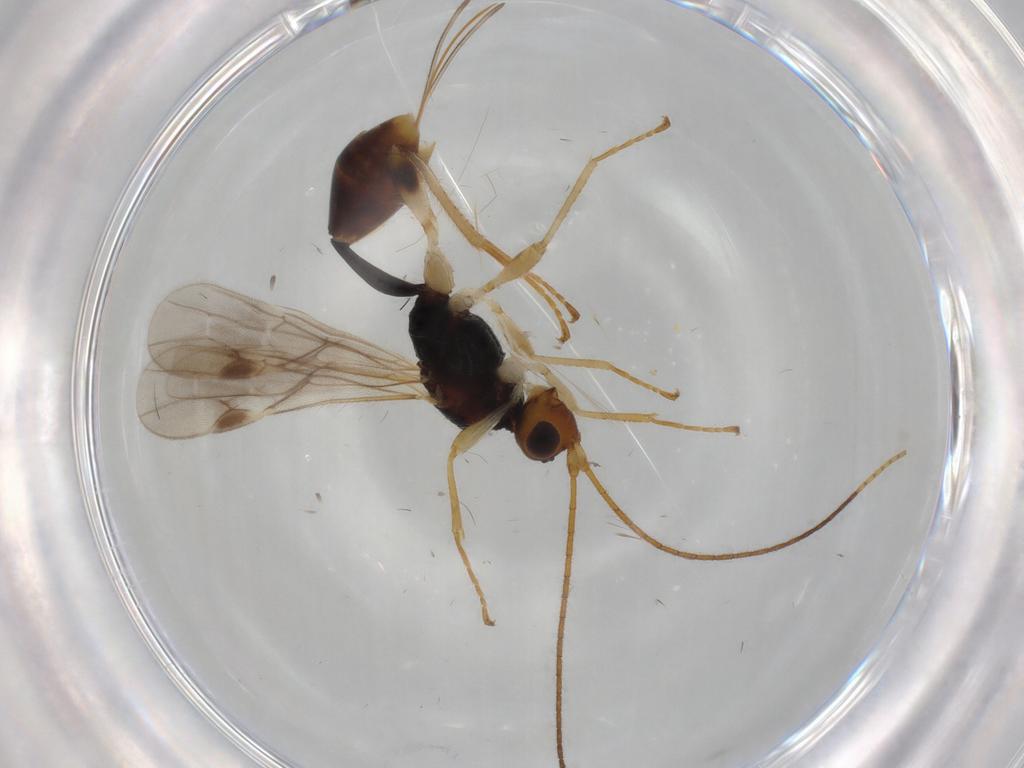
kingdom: Animalia
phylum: Arthropoda
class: Insecta
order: Hymenoptera
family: Braconidae
